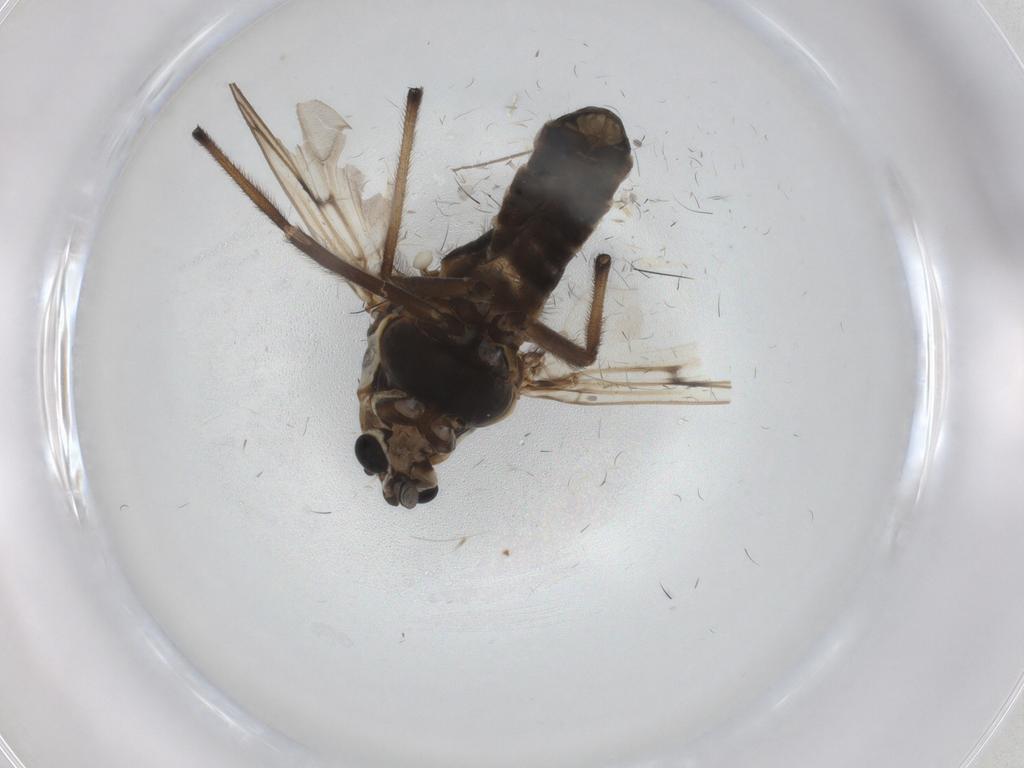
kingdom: Animalia
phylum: Arthropoda
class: Insecta
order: Diptera
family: Chironomidae
